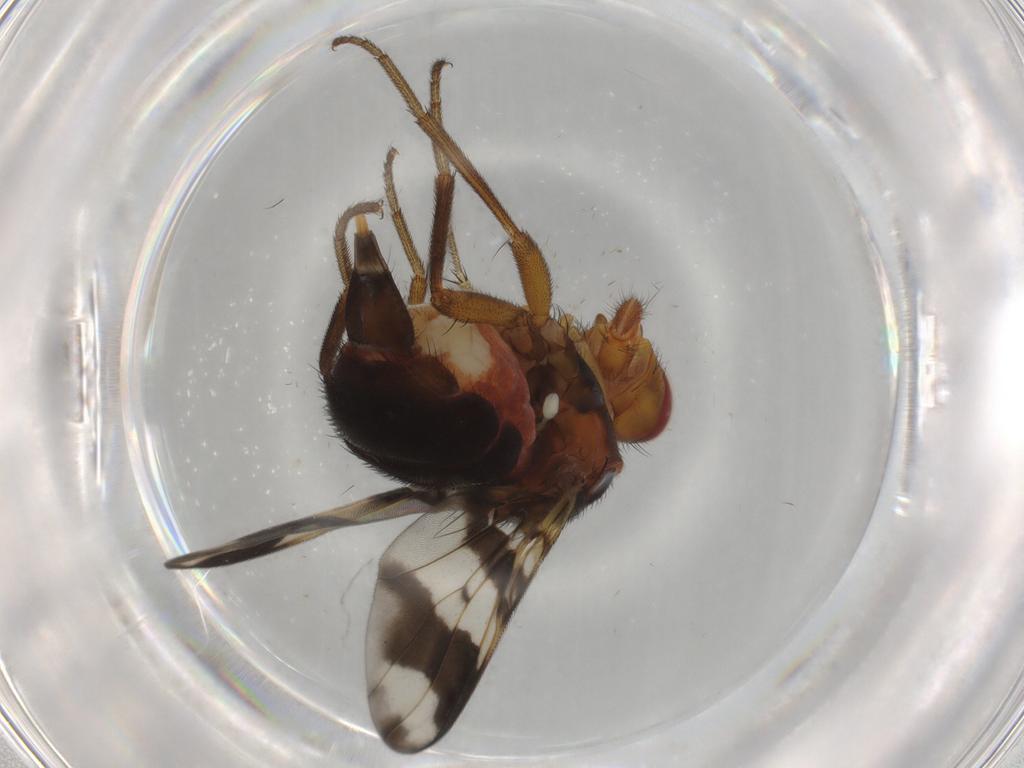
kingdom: Animalia
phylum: Arthropoda
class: Insecta
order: Diptera
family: Richardiidae
